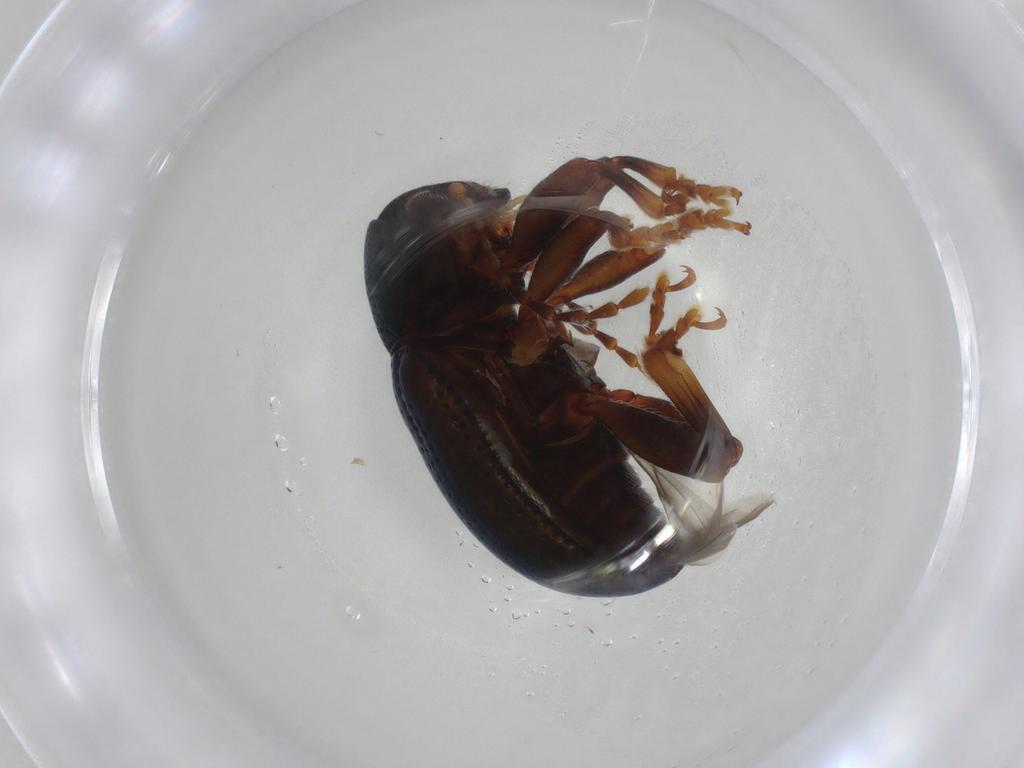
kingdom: Animalia
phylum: Arthropoda
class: Insecta
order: Coleoptera
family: Chrysomelidae
